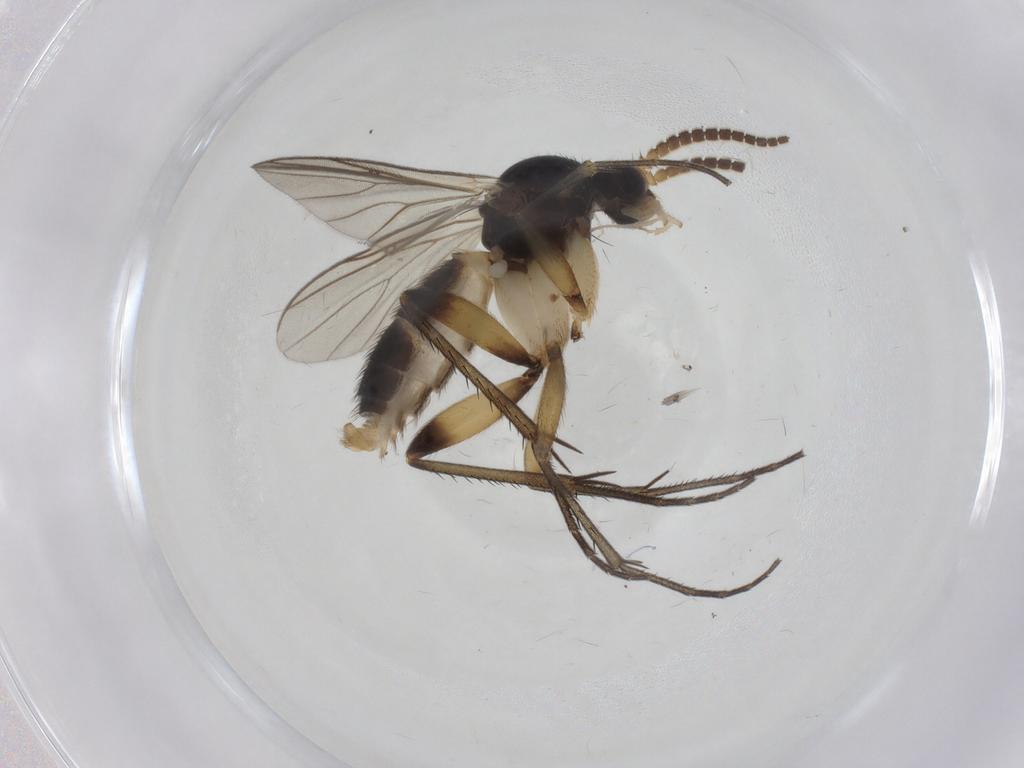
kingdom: Animalia
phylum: Arthropoda
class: Insecta
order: Diptera
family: Mycetophilidae
